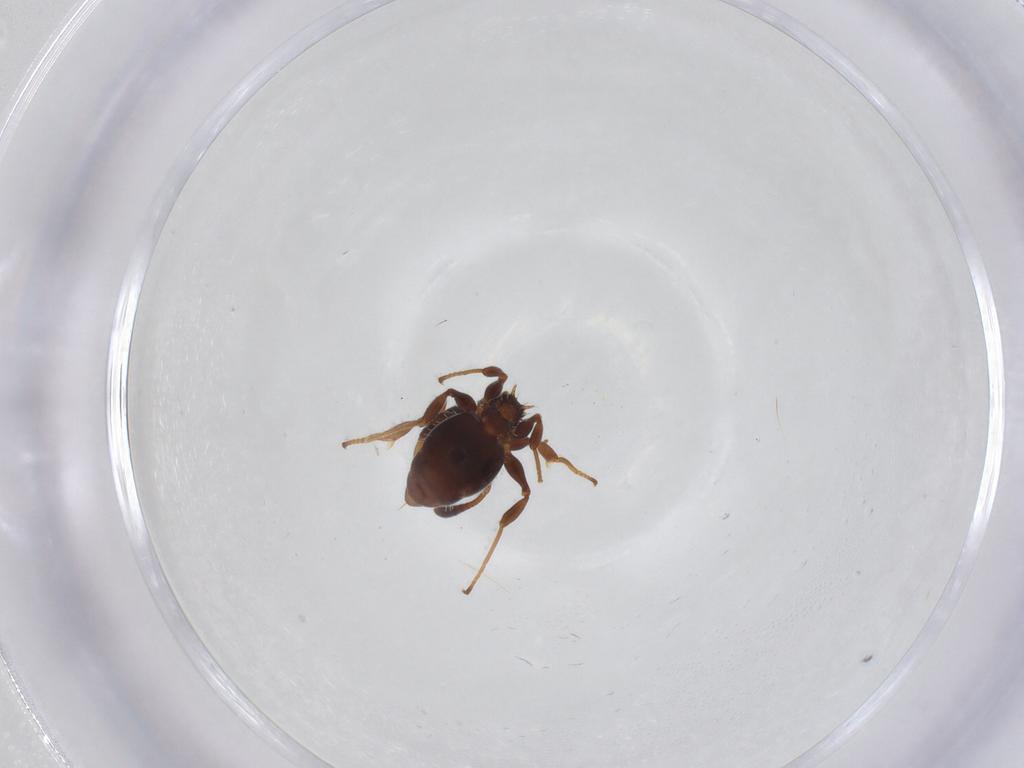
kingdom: Animalia
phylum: Arthropoda
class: Insecta
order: Hymenoptera
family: Formicidae
